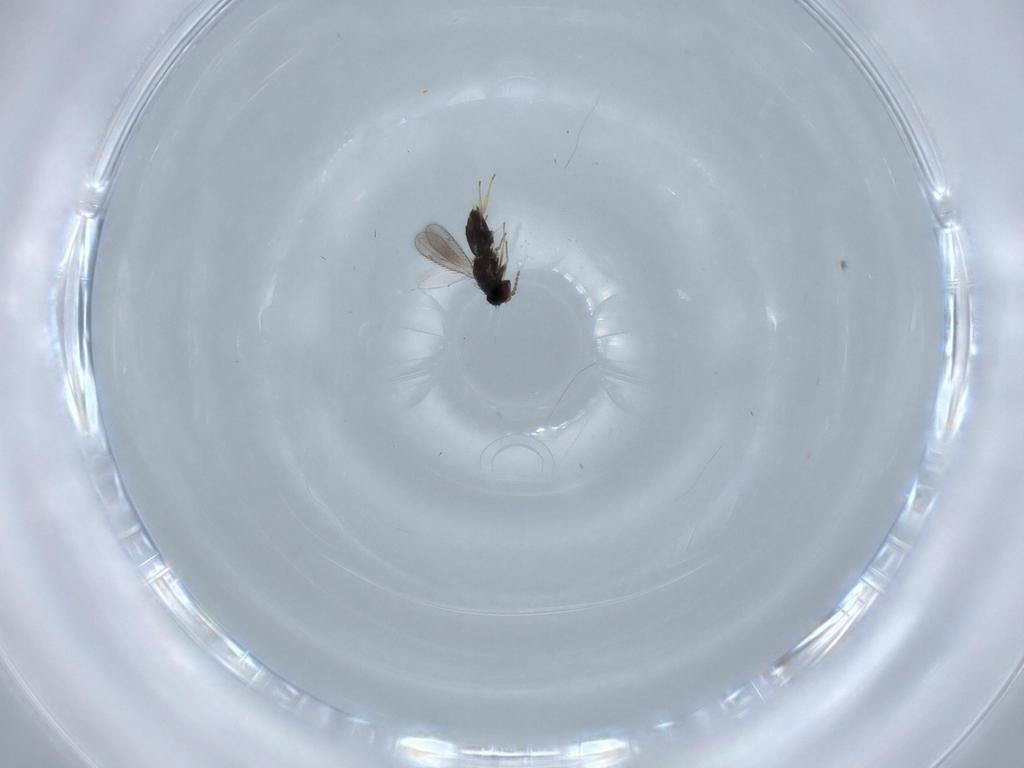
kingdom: Animalia
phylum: Arthropoda
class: Insecta
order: Hymenoptera
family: Trichogrammatidae
